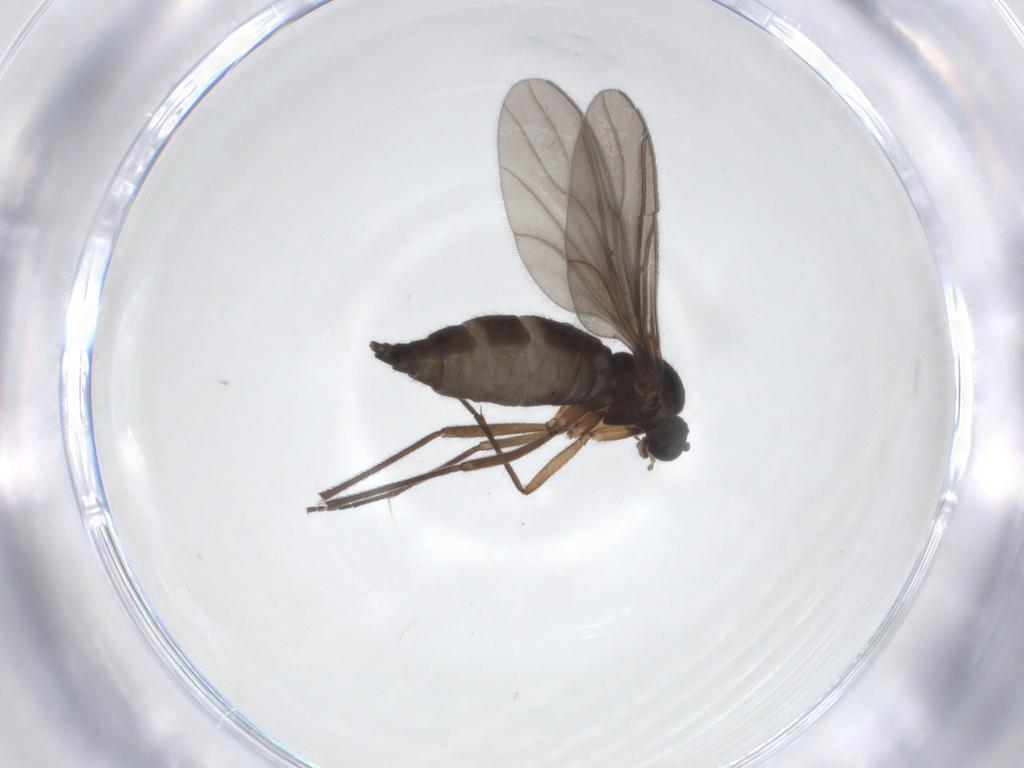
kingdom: Animalia
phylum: Arthropoda
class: Insecta
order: Diptera
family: Sciaridae
